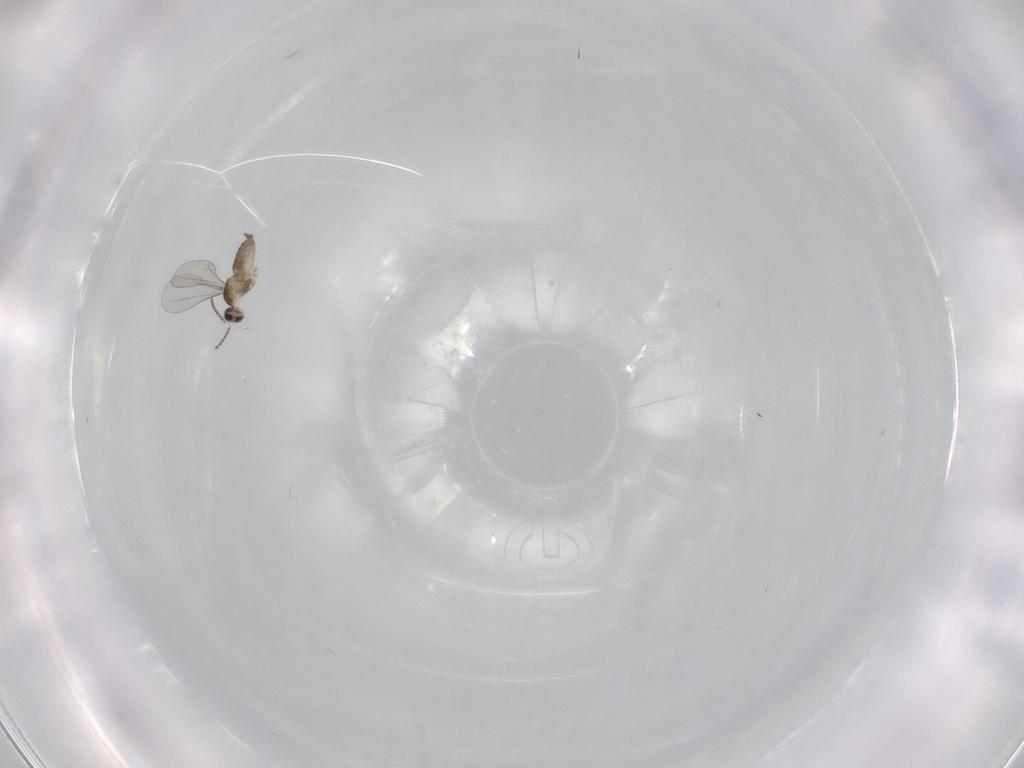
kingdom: Animalia
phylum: Arthropoda
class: Insecta
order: Diptera
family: Cecidomyiidae
